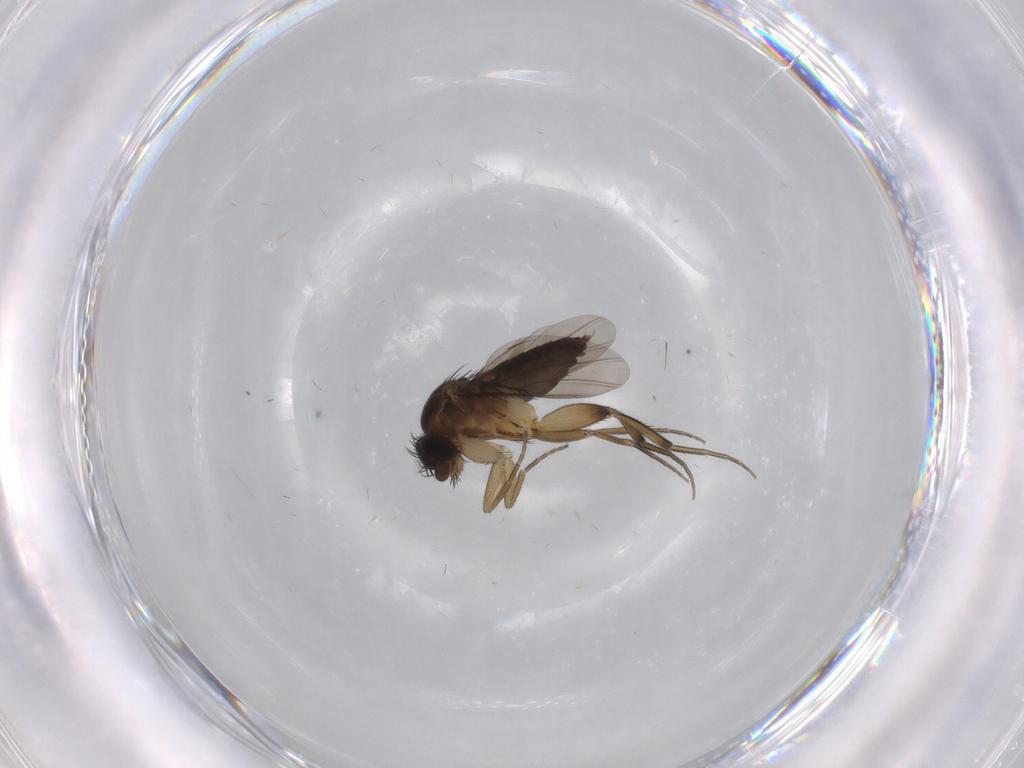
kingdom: Animalia
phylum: Arthropoda
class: Insecta
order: Diptera
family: Phoridae
